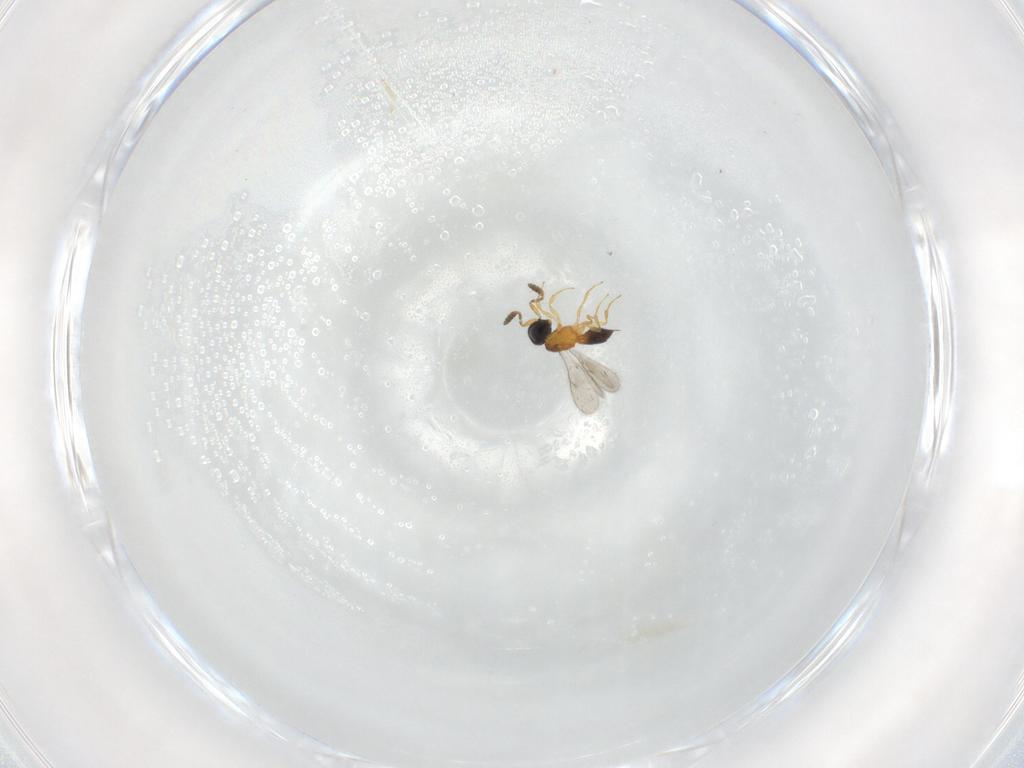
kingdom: Animalia
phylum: Arthropoda
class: Insecta
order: Hymenoptera
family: Scelionidae
